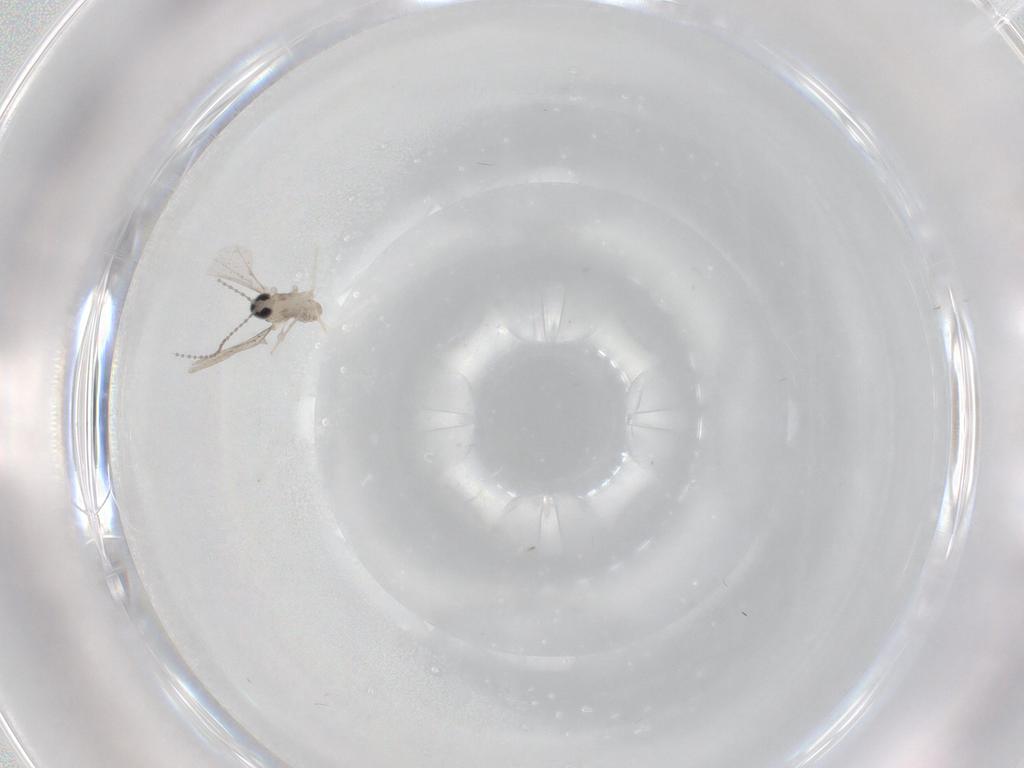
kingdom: Animalia
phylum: Arthropoda
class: Insecta
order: Diptera
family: Cecidomyiidae
